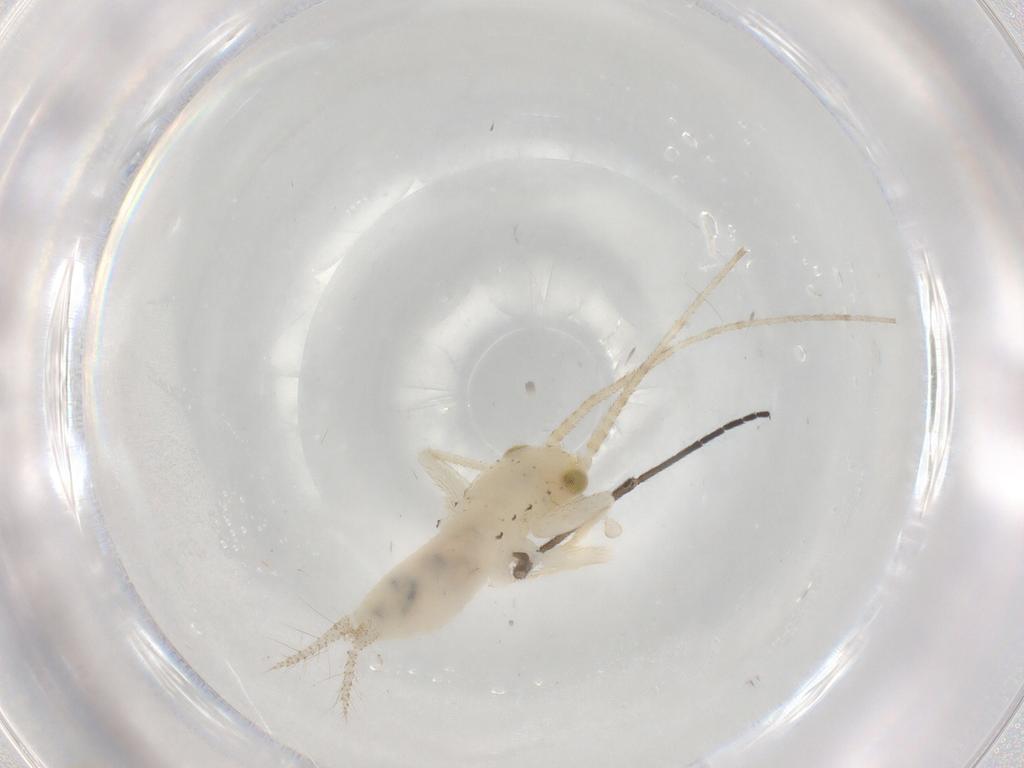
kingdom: Animalia
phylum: Arthropoda
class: Insecta
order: Orthoptera
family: Trigonidiidae
